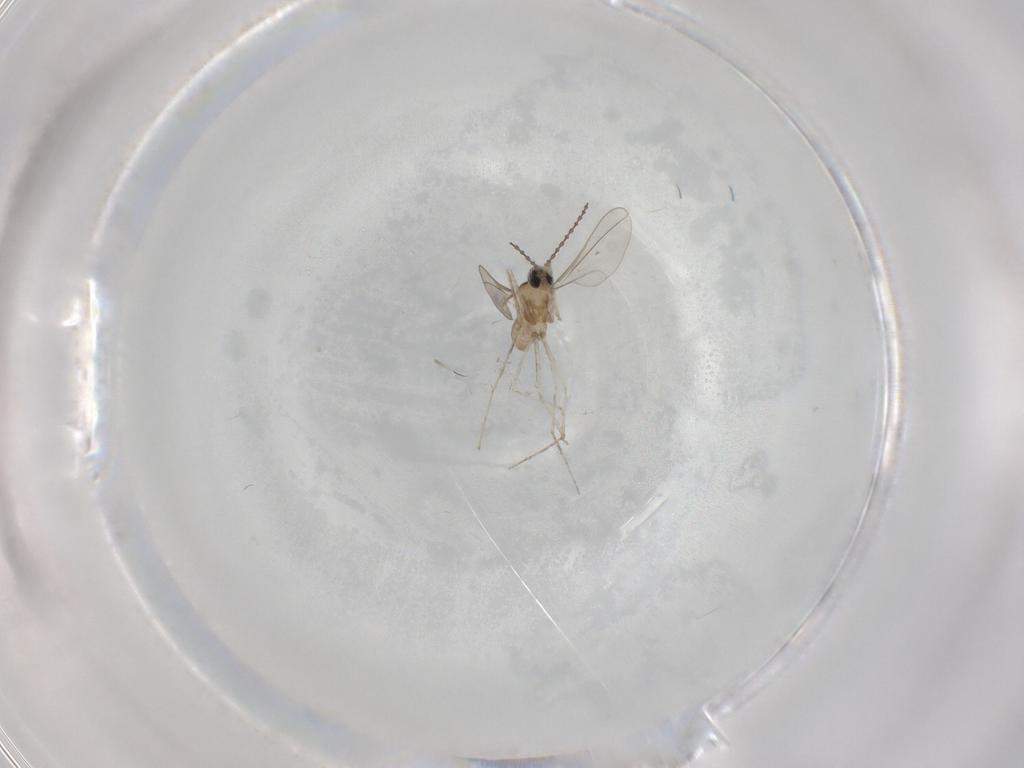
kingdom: Animalia
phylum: Arthropoda
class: Insecta
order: Diptera
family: Cecidomyiidae
